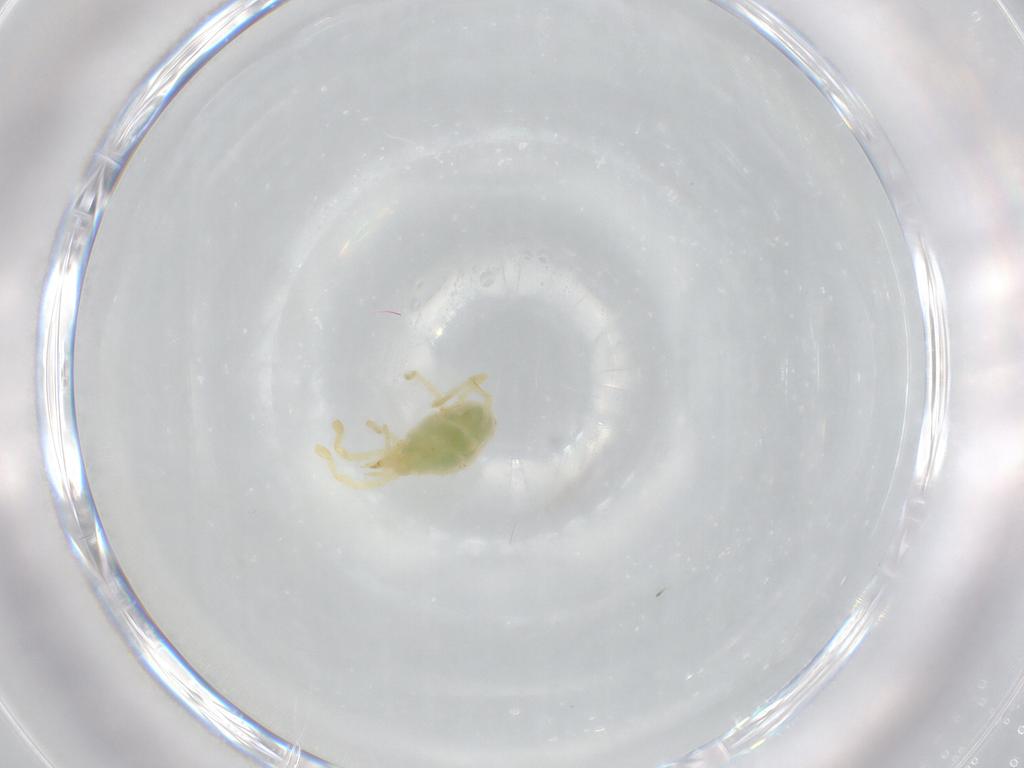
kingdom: Animalia
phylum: Arthropoda
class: Arachnida
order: Trombidiformes
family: Erythraeidae
